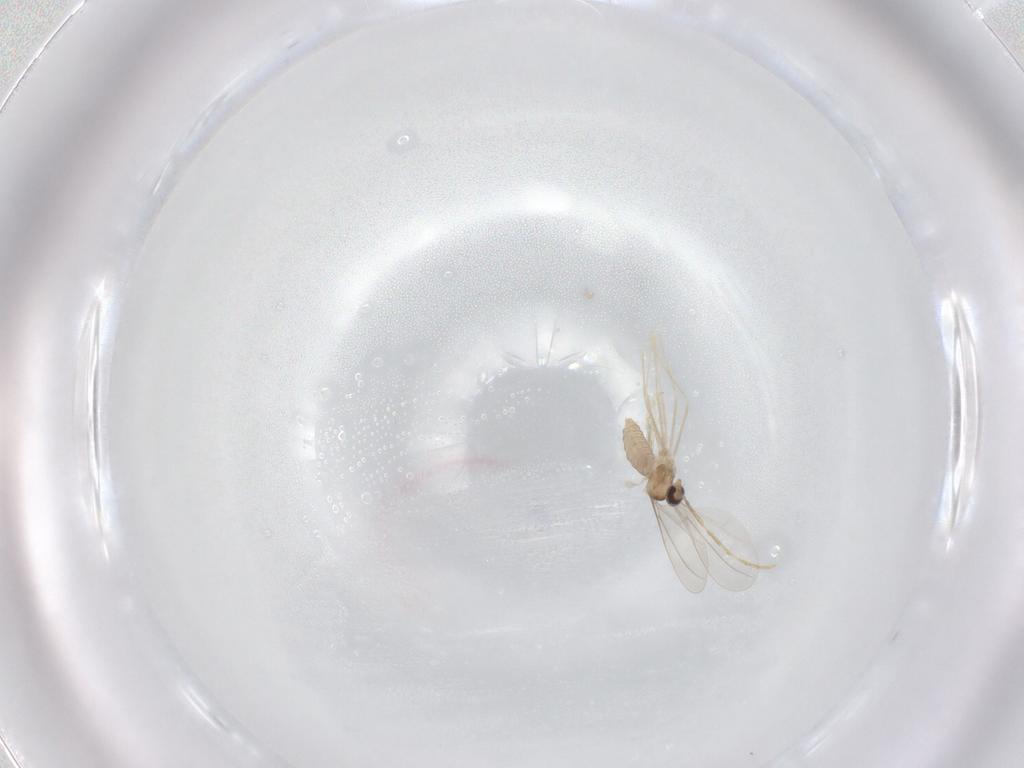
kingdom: Animalia
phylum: Arthropoda
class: Insecta
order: Diptera
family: Cecidomyiidae
